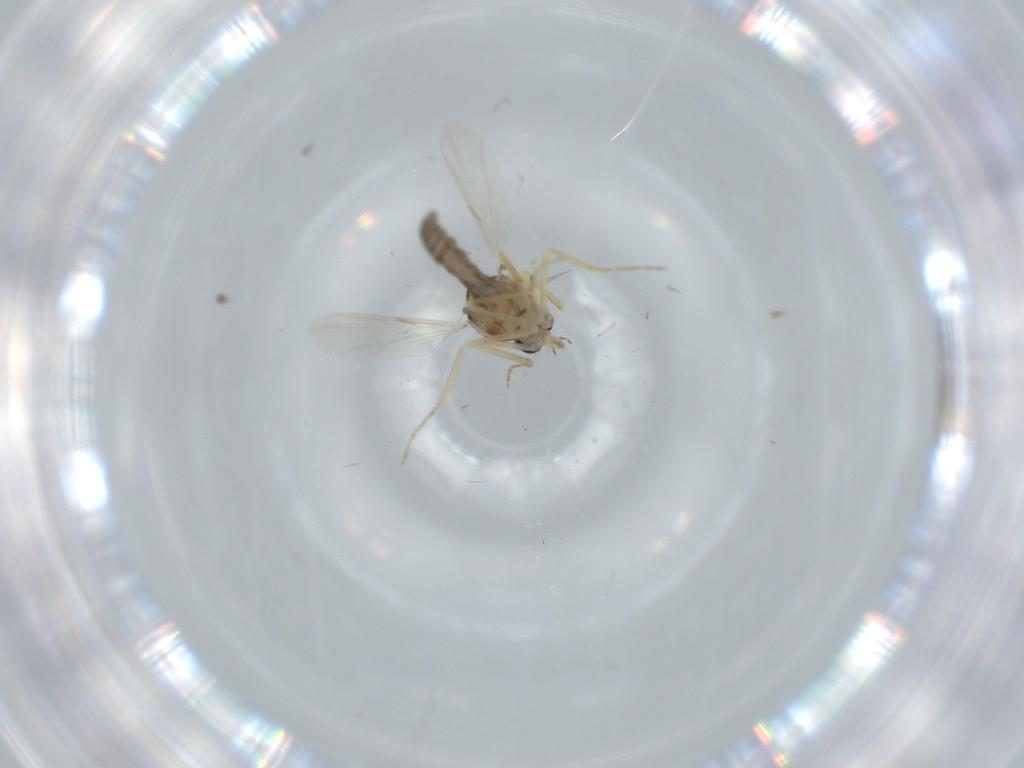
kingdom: Animalia
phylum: Arthropoda
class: Insecta
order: Diptera
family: Ceratopogonidae
